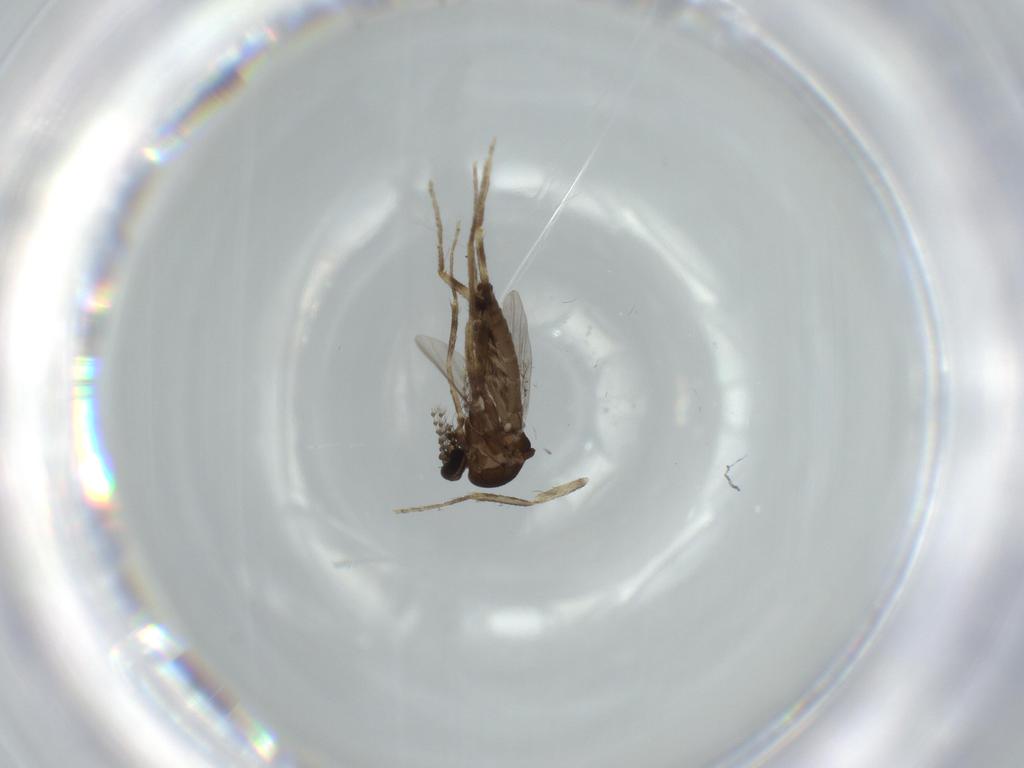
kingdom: Animalia
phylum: Arthropoda
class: Insecta
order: Diptera
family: Ceratopogonidae
